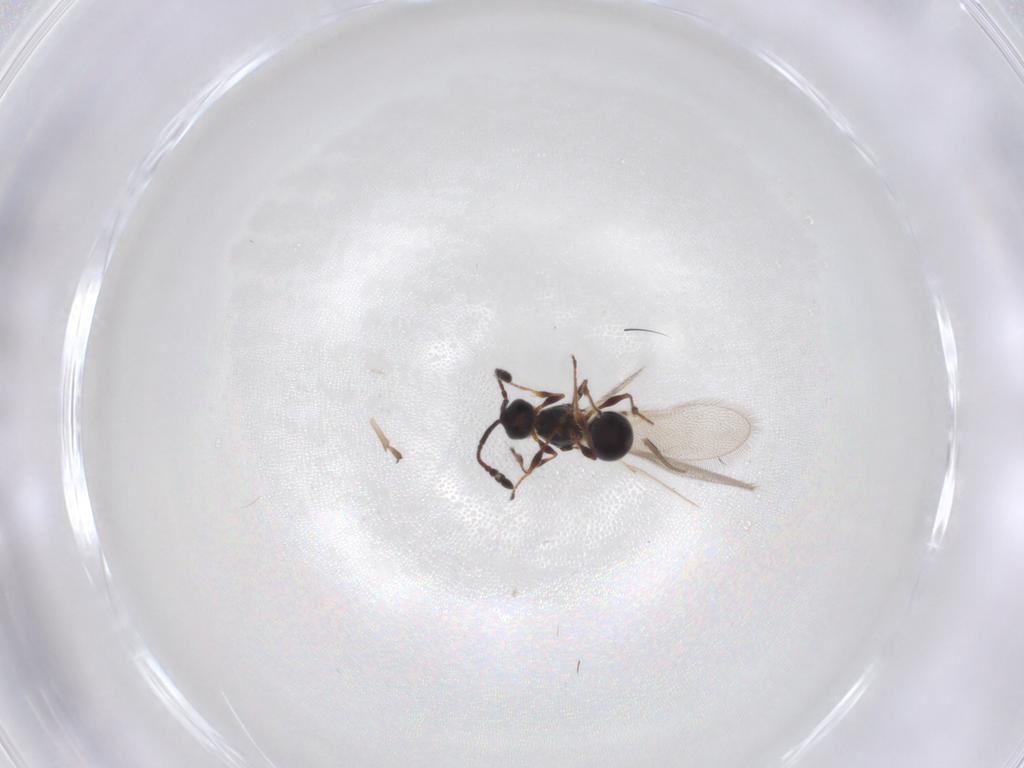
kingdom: Animalia
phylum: Arthropoda
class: Insecta
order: Hymenoptera
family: Diapriidae
